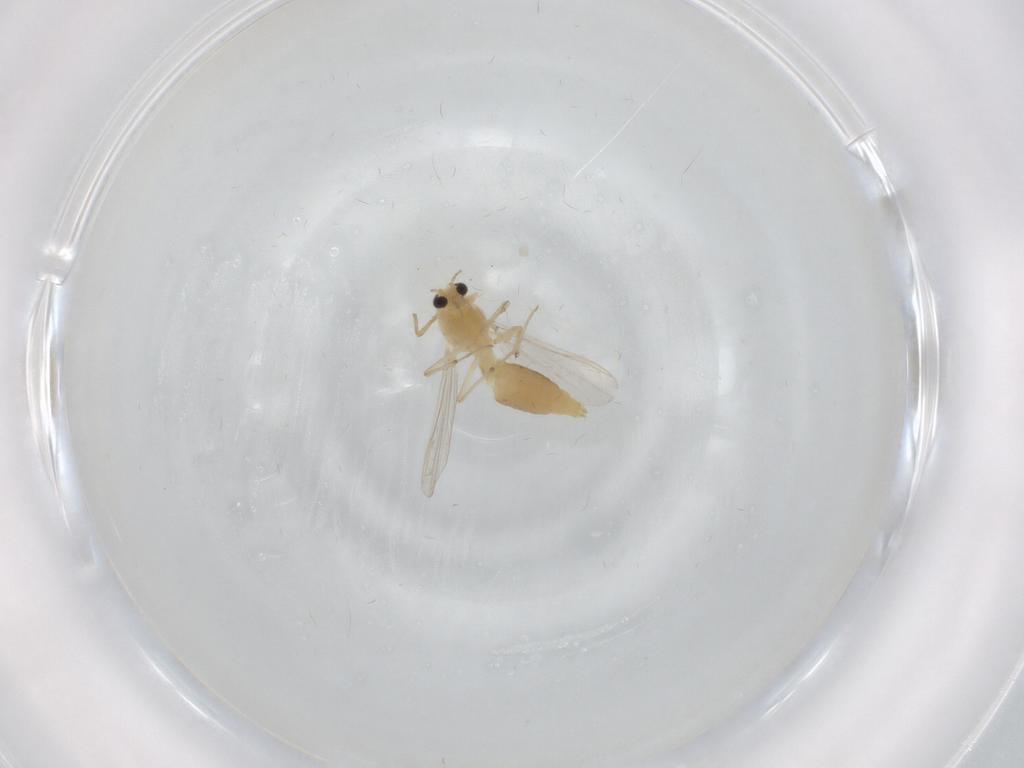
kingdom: Animalia
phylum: Arthropoda
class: Insecta
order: Diptera
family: Chironomidae
